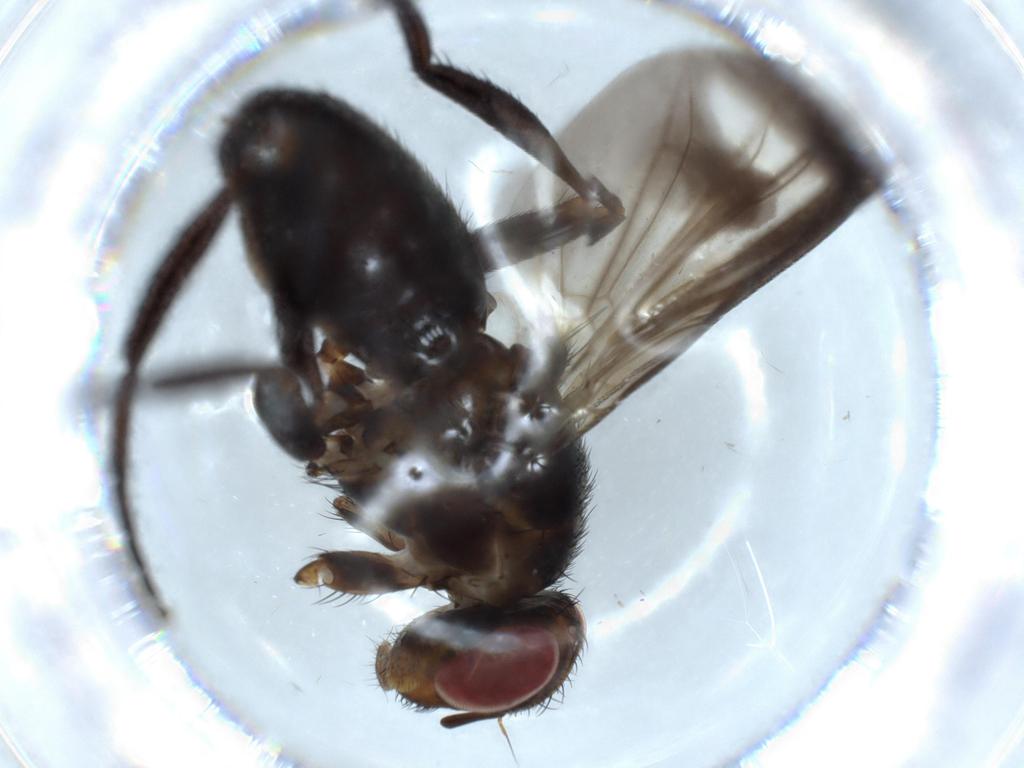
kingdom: Animalia
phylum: Arthropoda
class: Insecta
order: Diptera
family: Calliphoridae
